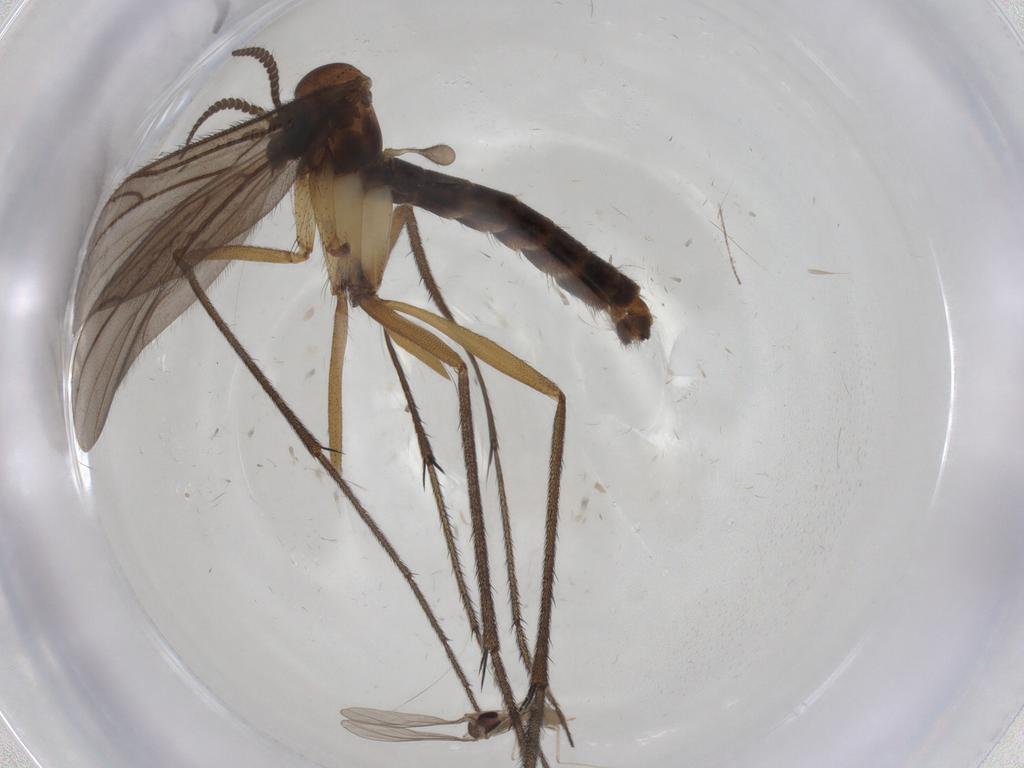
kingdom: Animalia
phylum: Arthropoda
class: Insecta
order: Diptera
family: Ditomyiidae
